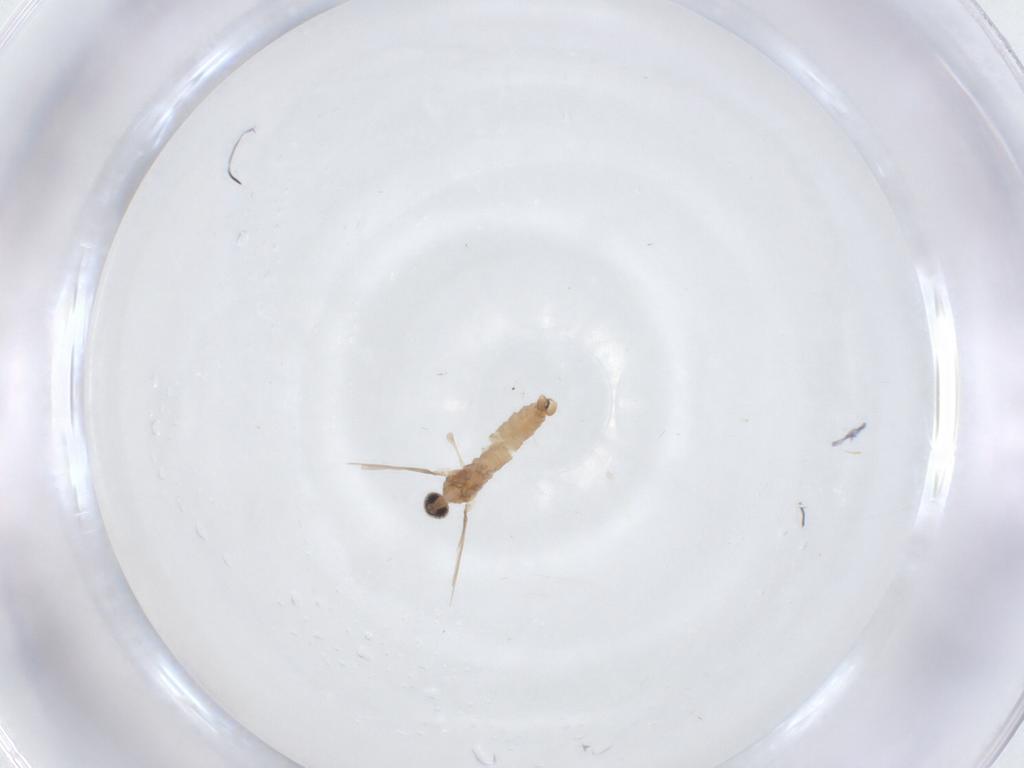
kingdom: Animalia
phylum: Arthropoda
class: Insecta
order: Diptera
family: Cecidomyiidae
